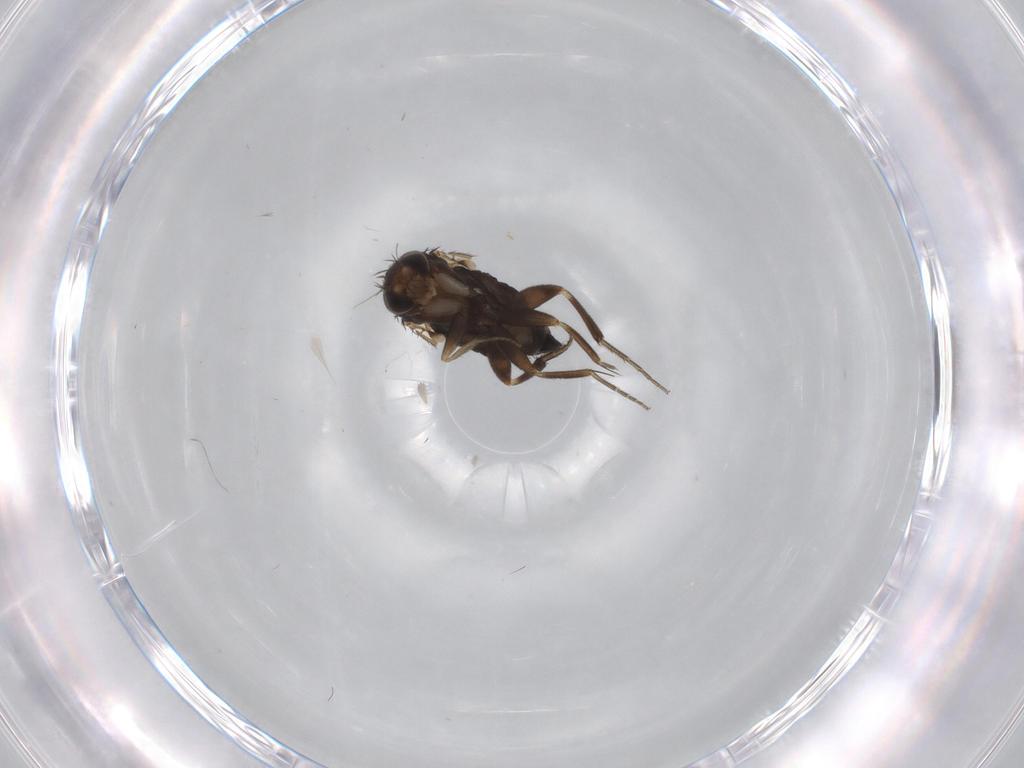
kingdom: Animalia
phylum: Arthropoda
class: Insecta
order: Diptera
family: Phoridae
